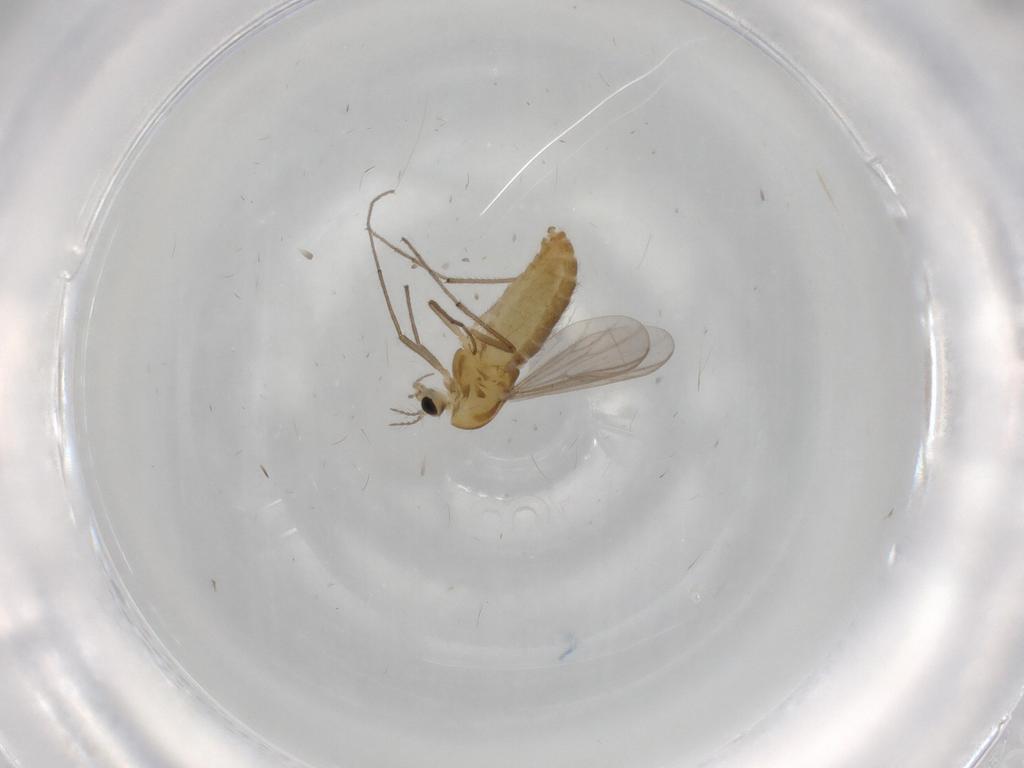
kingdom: Animalia
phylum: Arthropoda
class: Insecta
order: Diptera
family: Chironomidae
